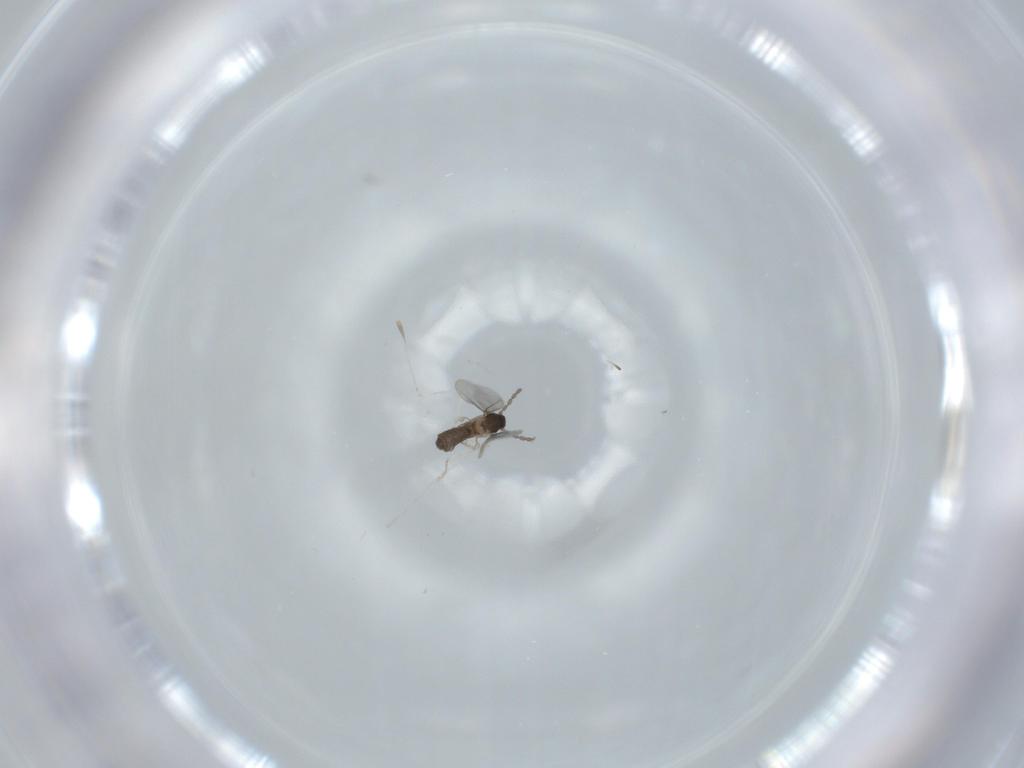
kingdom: Animalia
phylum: Arthropoda
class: Insecta
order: Diptera
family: Cecidomyiidae
